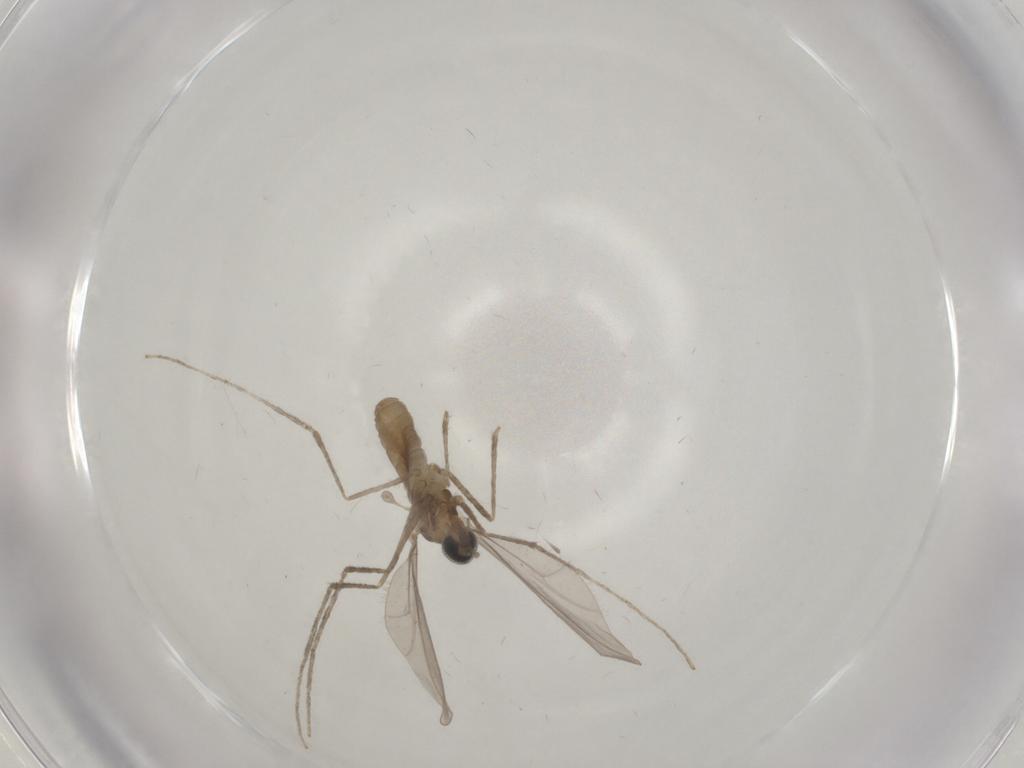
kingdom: Animalia
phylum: Arthropoda
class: Insecta
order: Diptera
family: Cecidomyiidae
